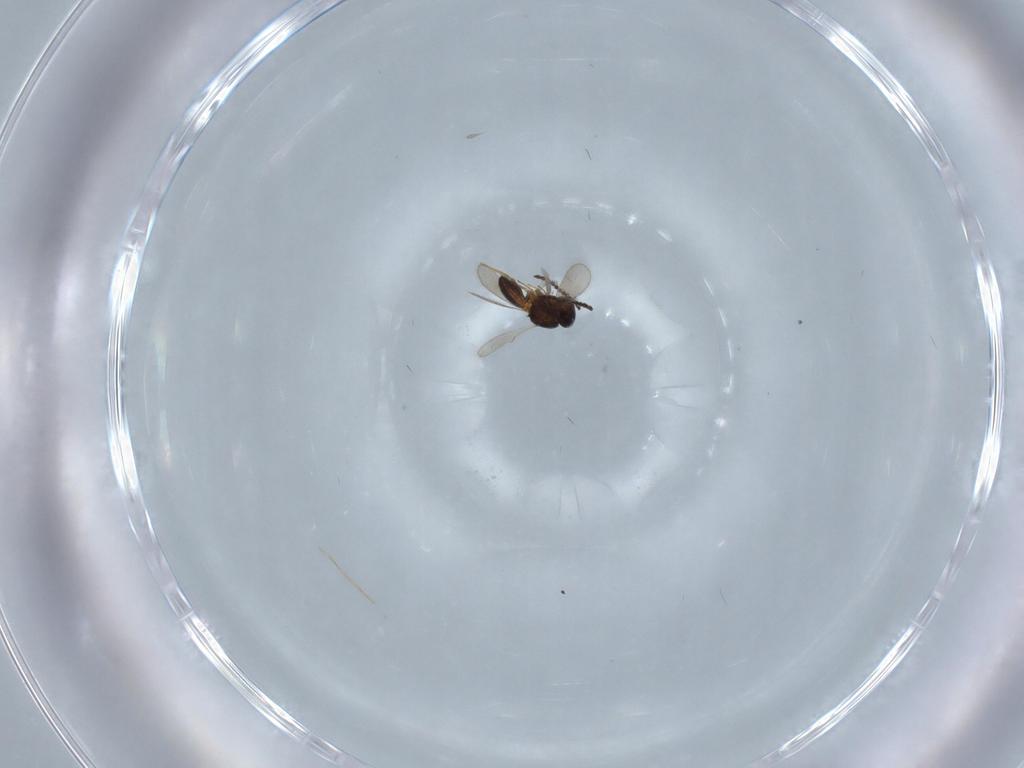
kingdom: Animalia
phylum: Arthropoda
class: Insecta
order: Hymenoptera
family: Scelionidae
